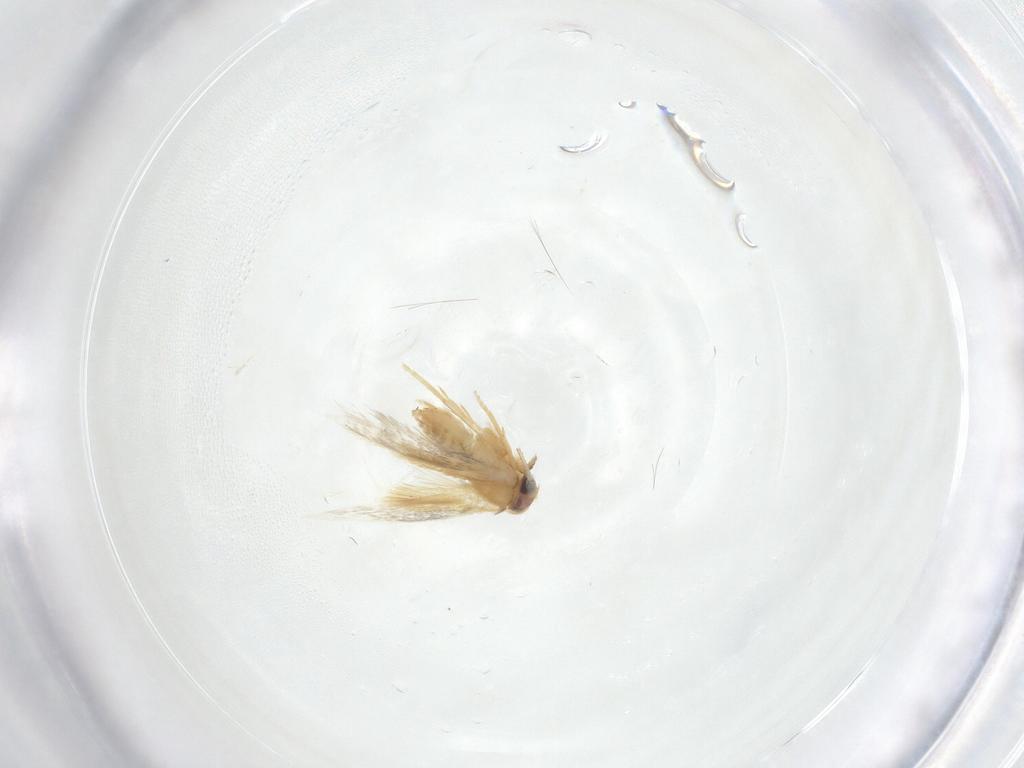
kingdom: Animalia
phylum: Arthropoda
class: Insecta
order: Lepidoptera
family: Nepticulidae
